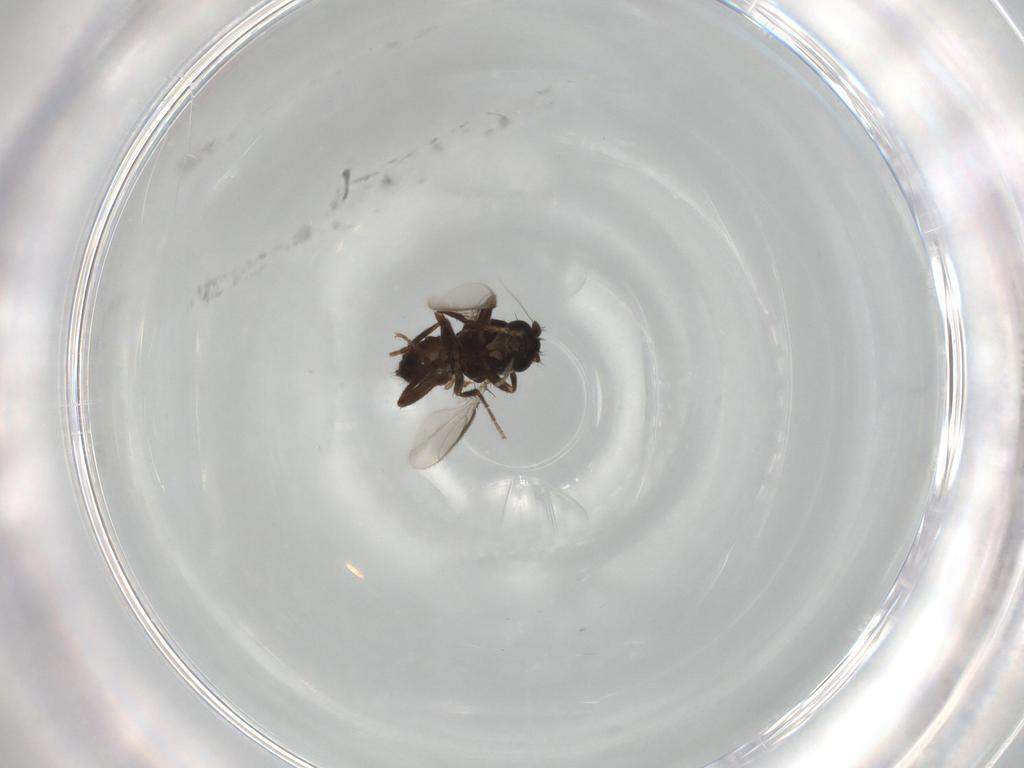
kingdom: Animalia
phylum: Arthropoda
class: Insecta
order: Diptera
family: Sphaeroceridae
